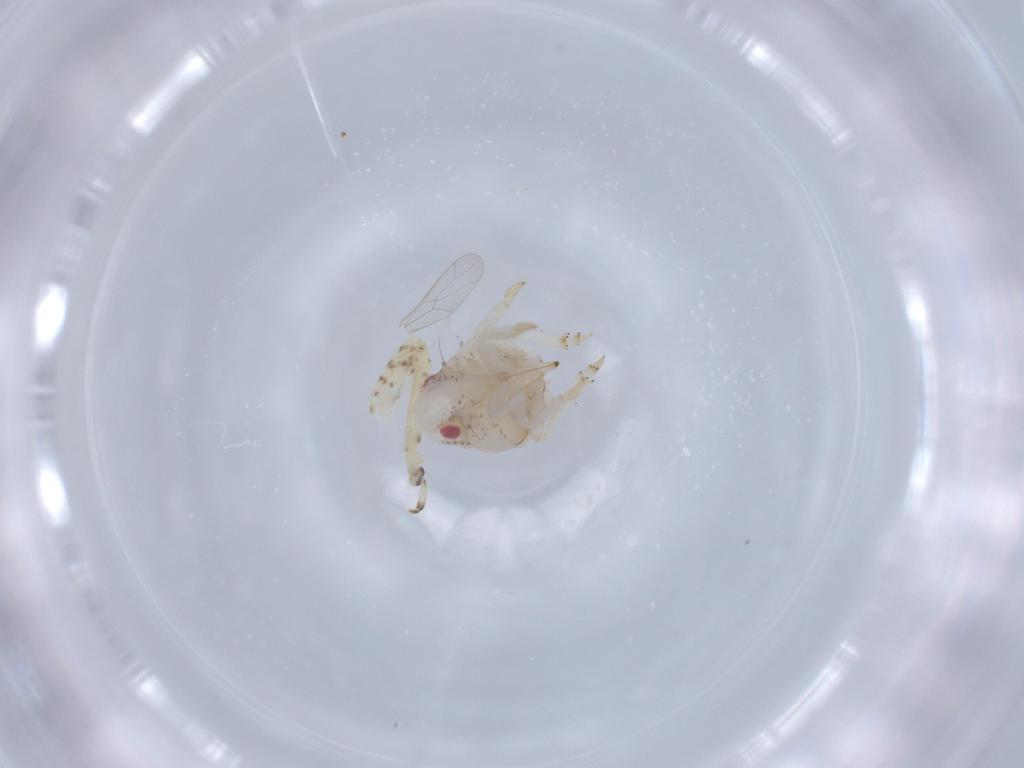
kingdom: Animalia
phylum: Arthropoda
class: Insecta
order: Hemiptera
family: Acanaloniidae
